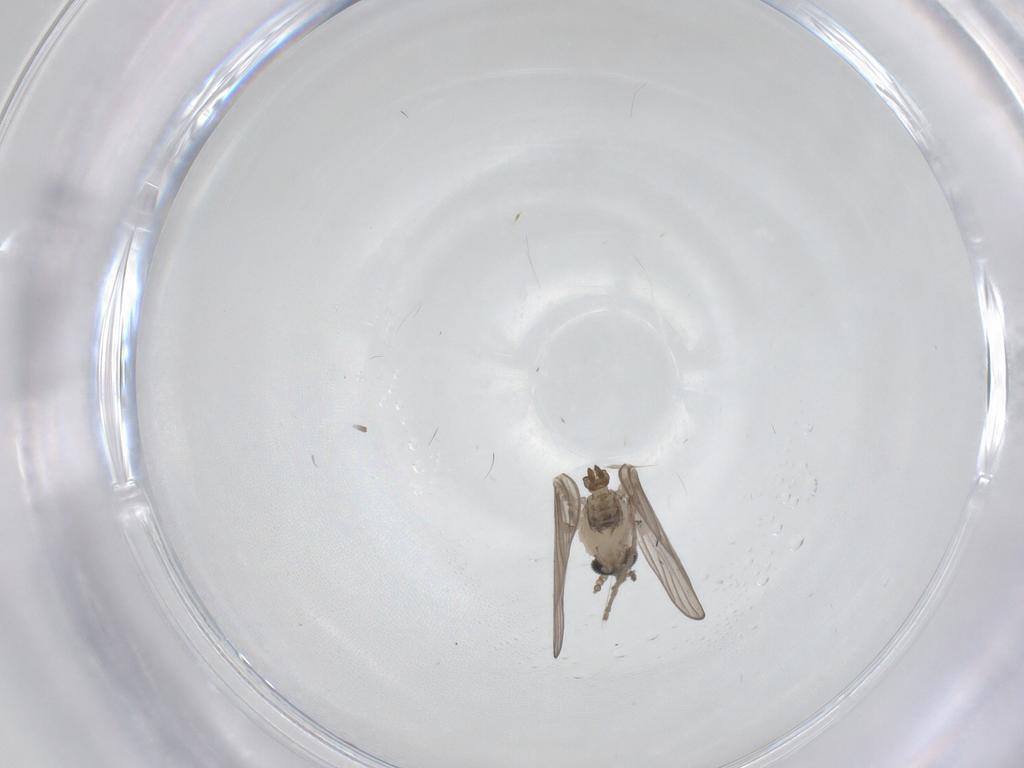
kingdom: Animalia
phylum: Arthropoda
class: Insecta
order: Diptera
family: Psychodidae
